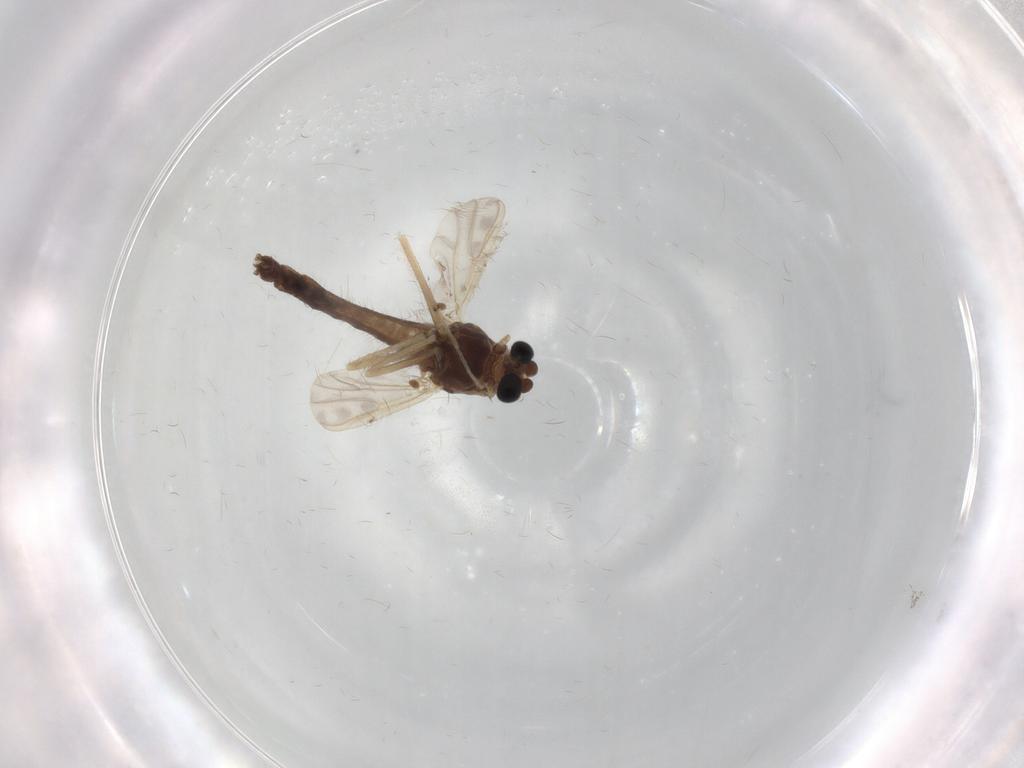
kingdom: Animalia
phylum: Arthropoda
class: Insecta
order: Diptera
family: Chironomidae
